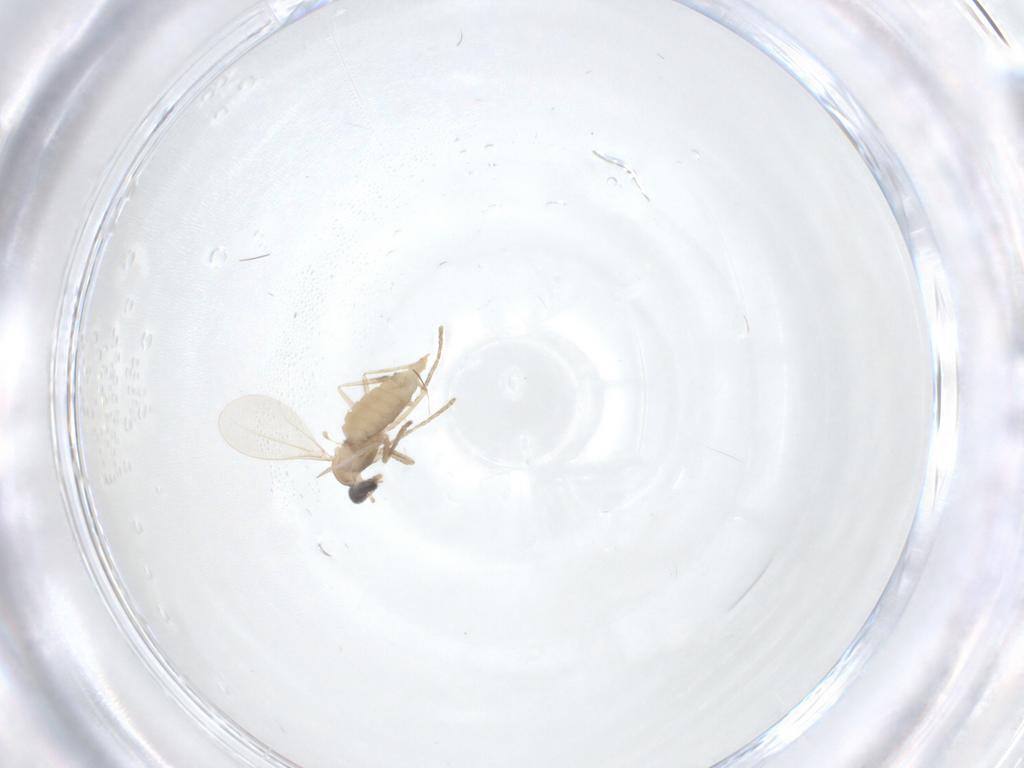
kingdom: Animalia
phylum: Arthropoda
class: Insecta
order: Diptera
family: Cecidomyiidae
